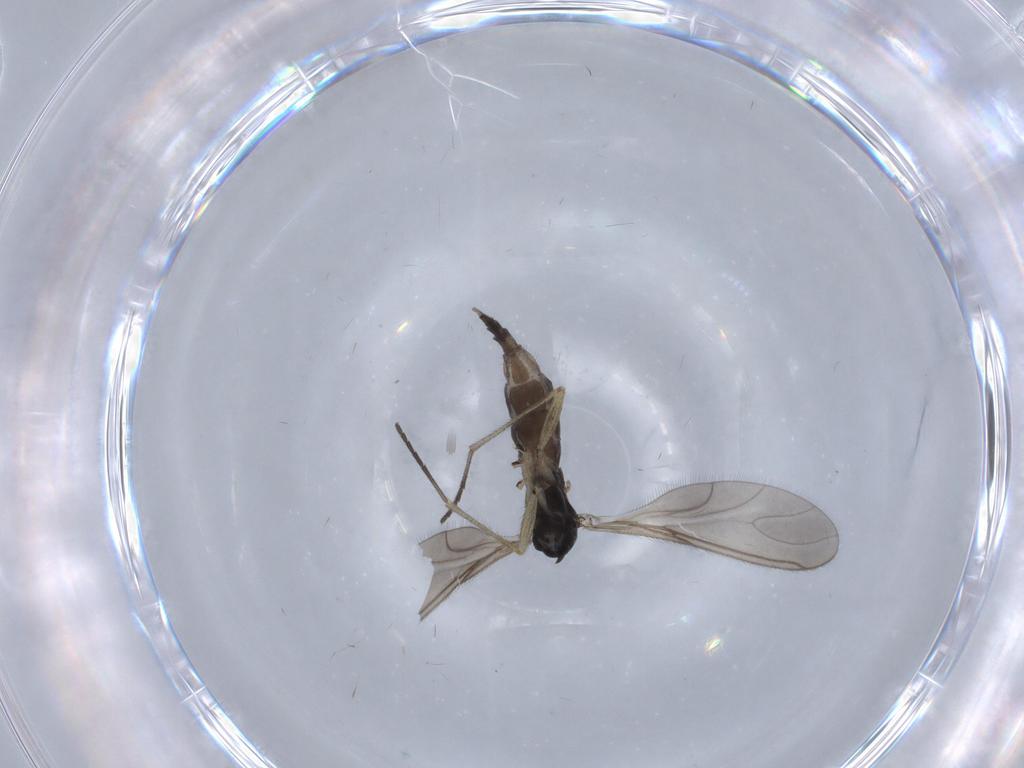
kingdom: Animalia
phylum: Arthropoda
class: Insecta
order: Diptera
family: Sciaridae
